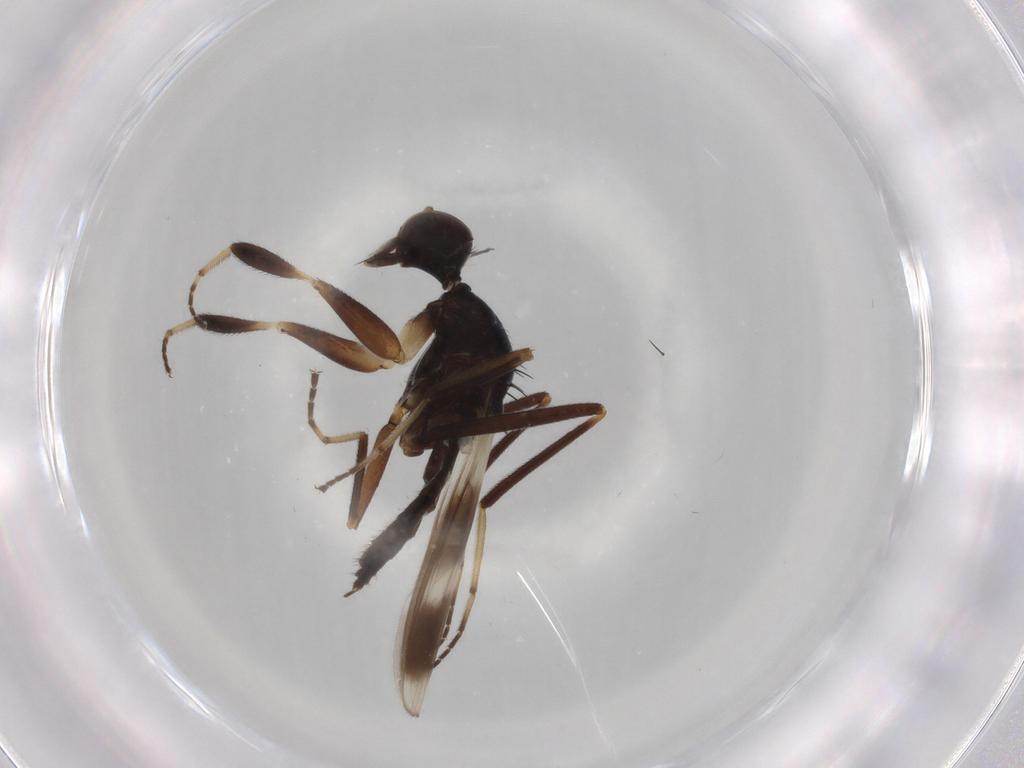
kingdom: Animalia
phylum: Arthropoda
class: Insecta
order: Diptera
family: Hybotidae
